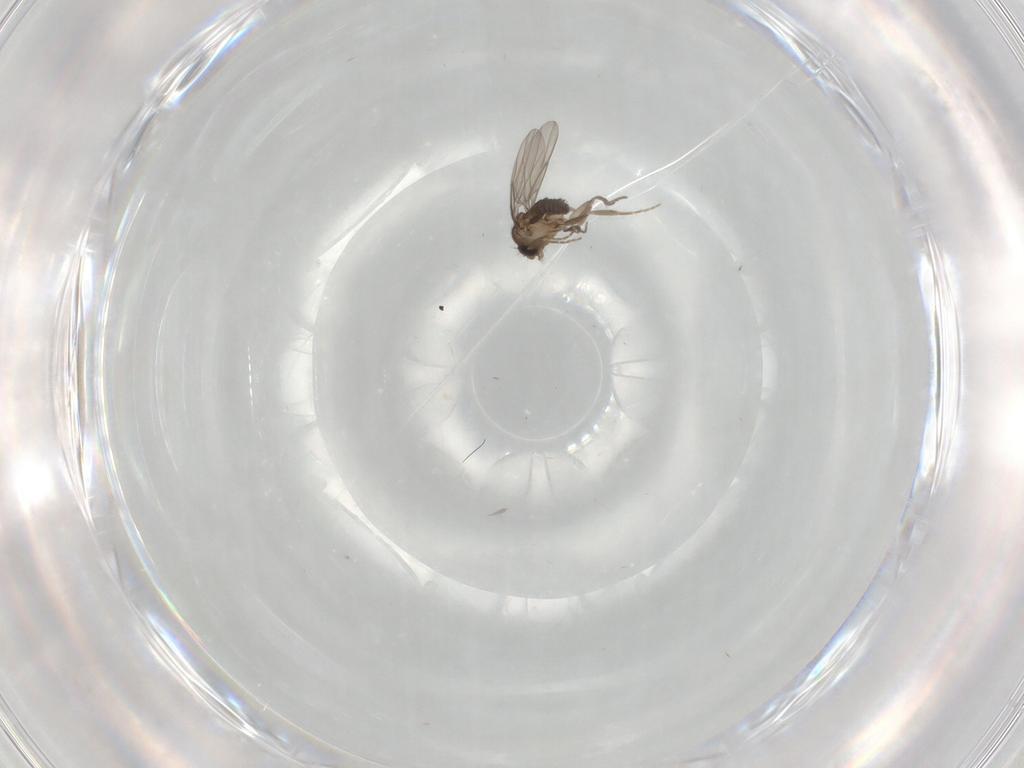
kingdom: Animalia
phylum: Arthropoda
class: Insecta
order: Diptera
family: Phoridae
